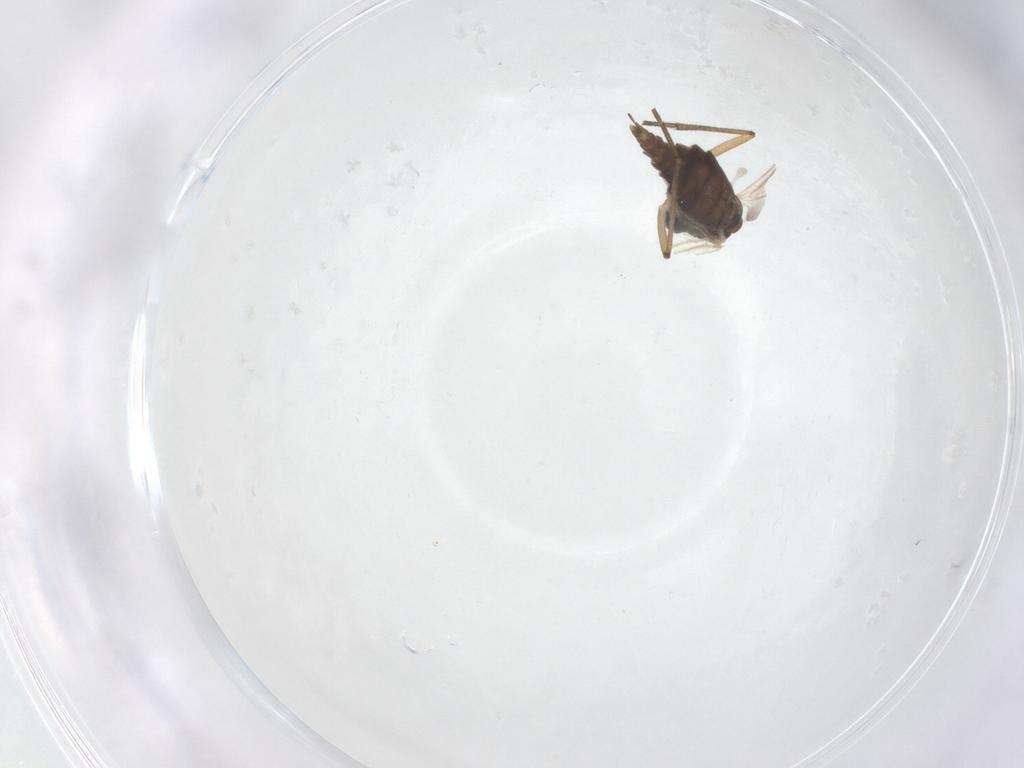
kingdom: Animalia
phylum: Arthropoda
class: Insecta
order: Diptera
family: Sciaridae
